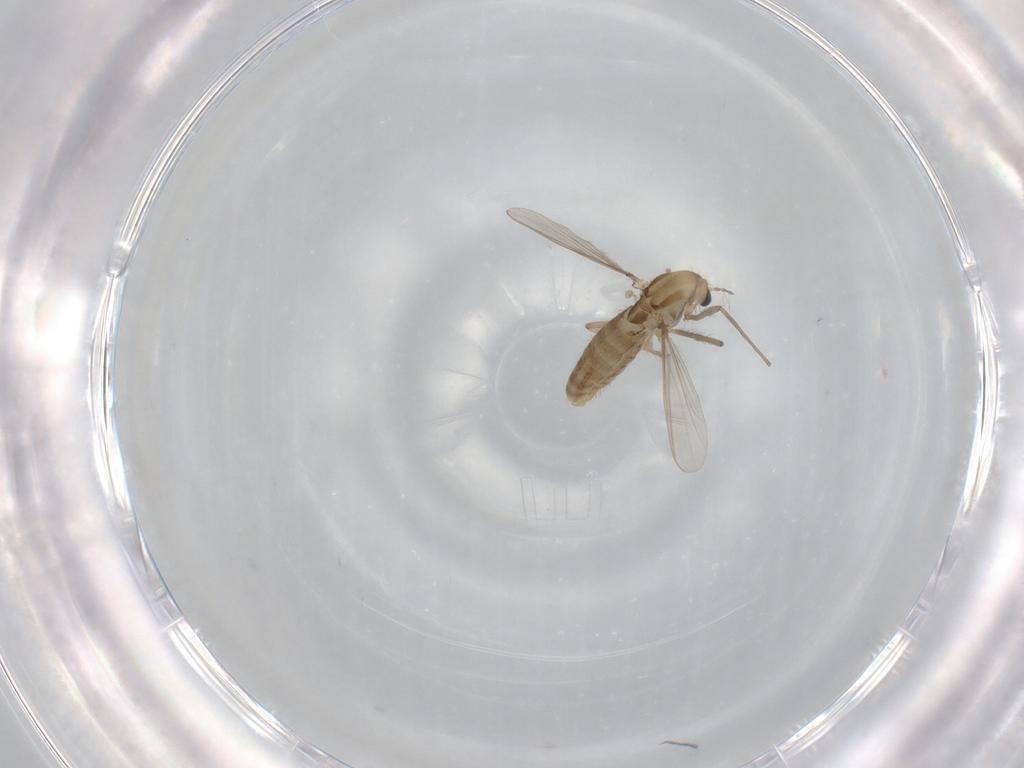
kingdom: Animalia
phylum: Arthropoda
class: Insecta
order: Diptera
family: Chironomidae
